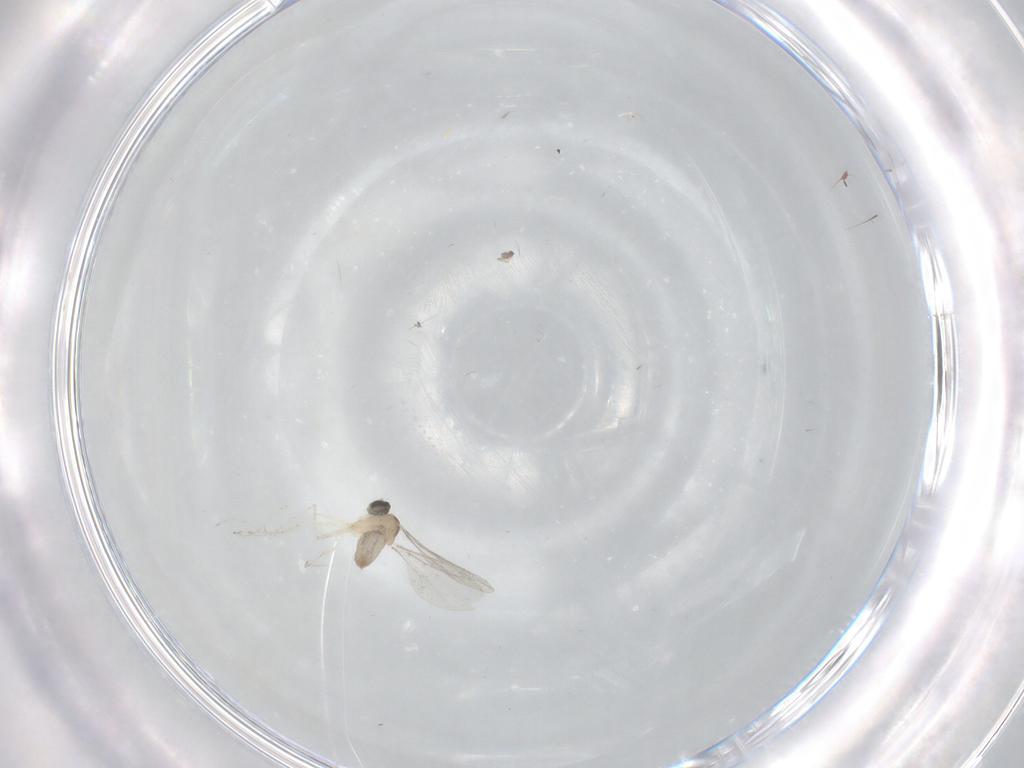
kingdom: Animalia
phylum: Arthropoda
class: Insecta
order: Diptera
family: Cecidomyiidae
